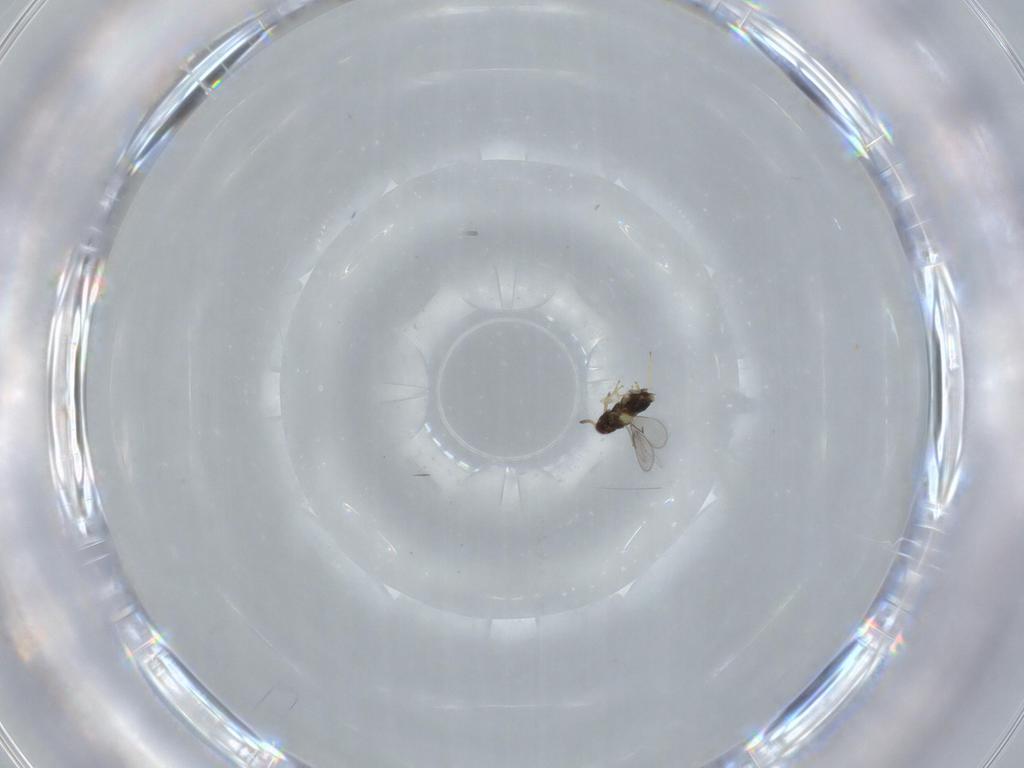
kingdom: Animalia
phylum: Arthropoda
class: Insecta
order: Hymenoptera
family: Aphelinidae
